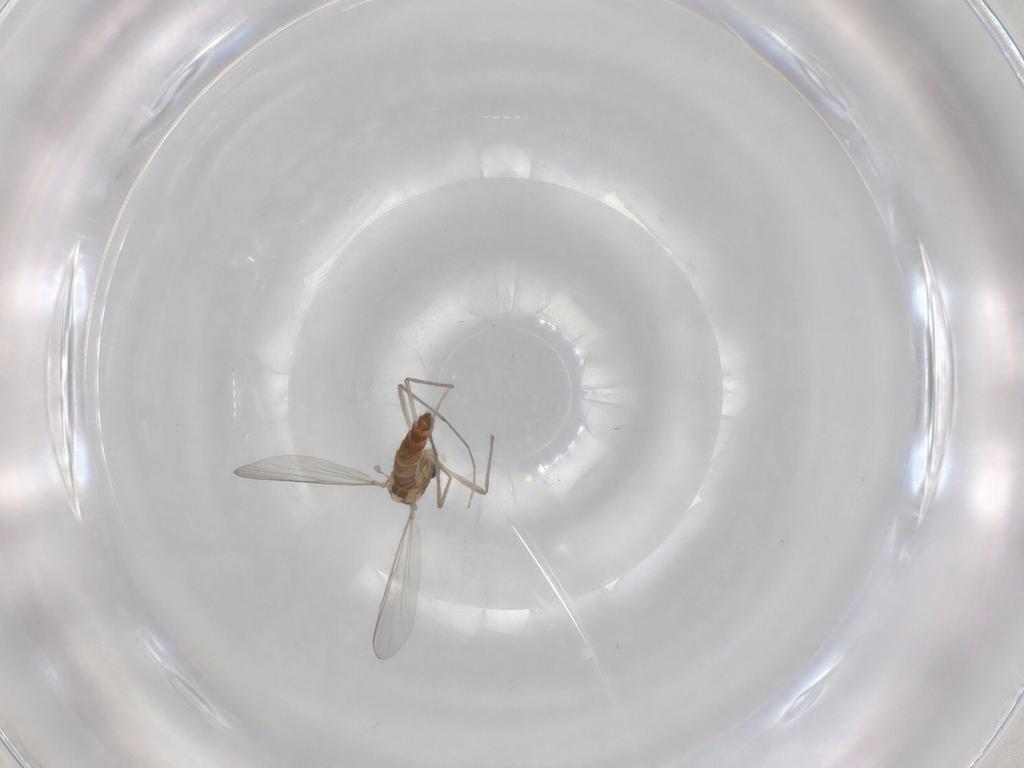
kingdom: Animalia
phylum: Arthropoda
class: Insecta
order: Diptera
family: Chironomidae
